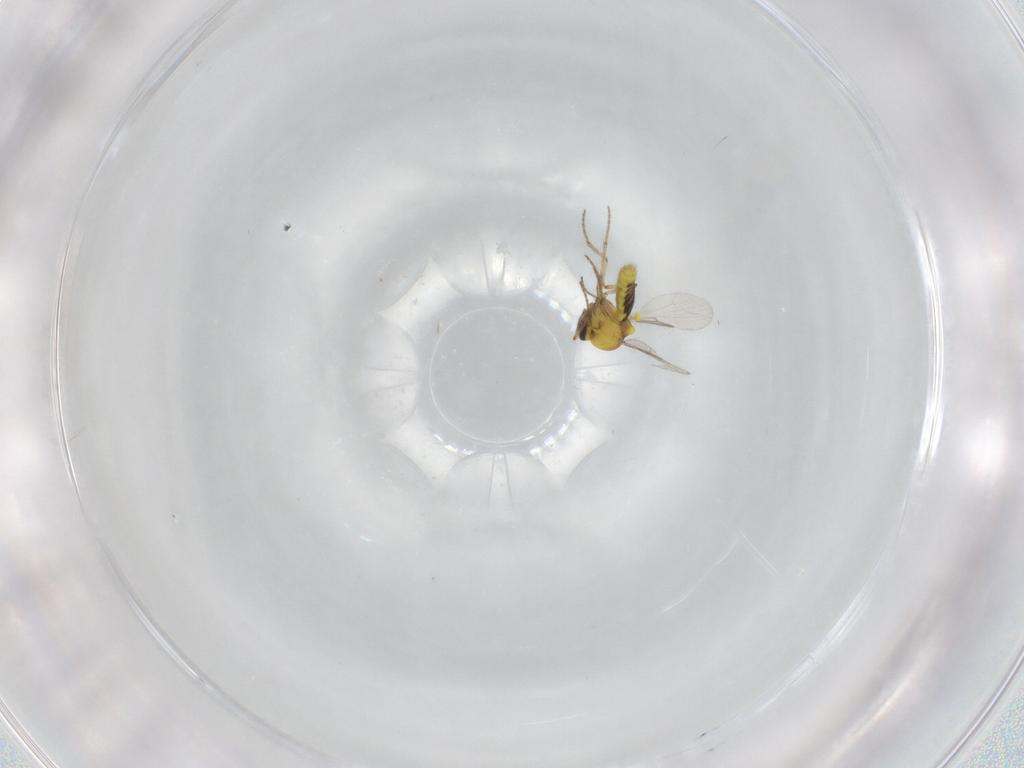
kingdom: Animalia
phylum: Arthropoda
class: Insecta
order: Diptera
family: Ceratopogonidae
